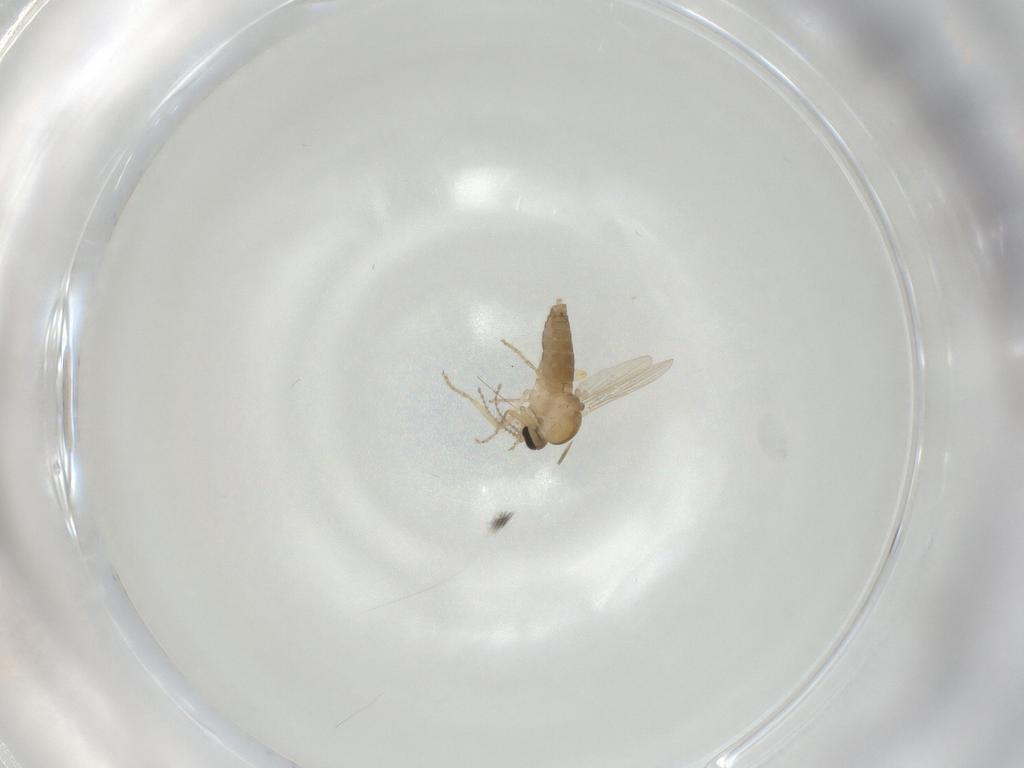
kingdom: Animalia
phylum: Arthropoda
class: Insecta
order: Diptera
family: Ceratopogonidae
